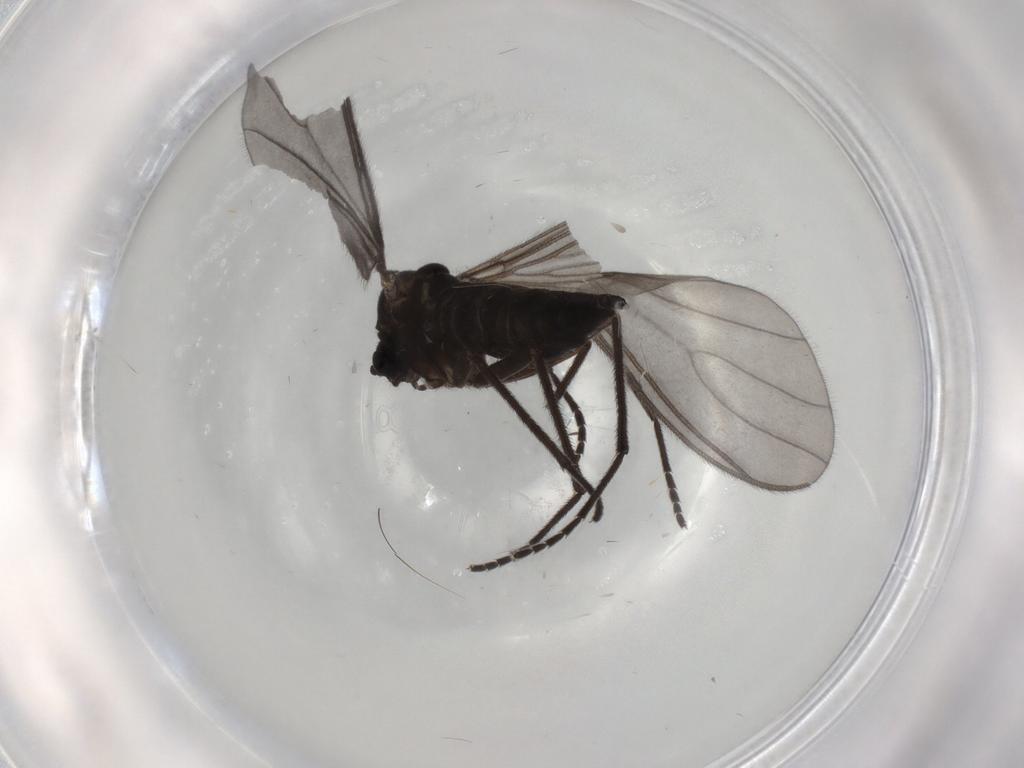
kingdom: Animalia
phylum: Arthropoda
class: Insecta
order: Diptera
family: Sciaridae
